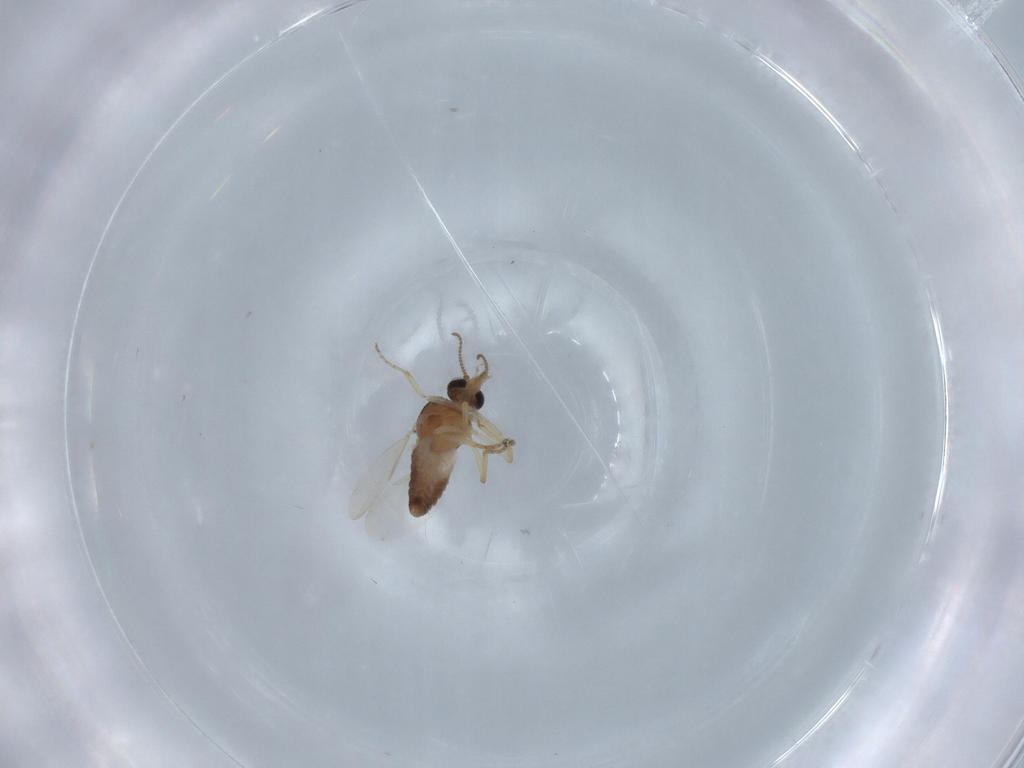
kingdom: Animalia
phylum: Arthropoda
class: Insecta
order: Diptera
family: Ceratopogonidae
